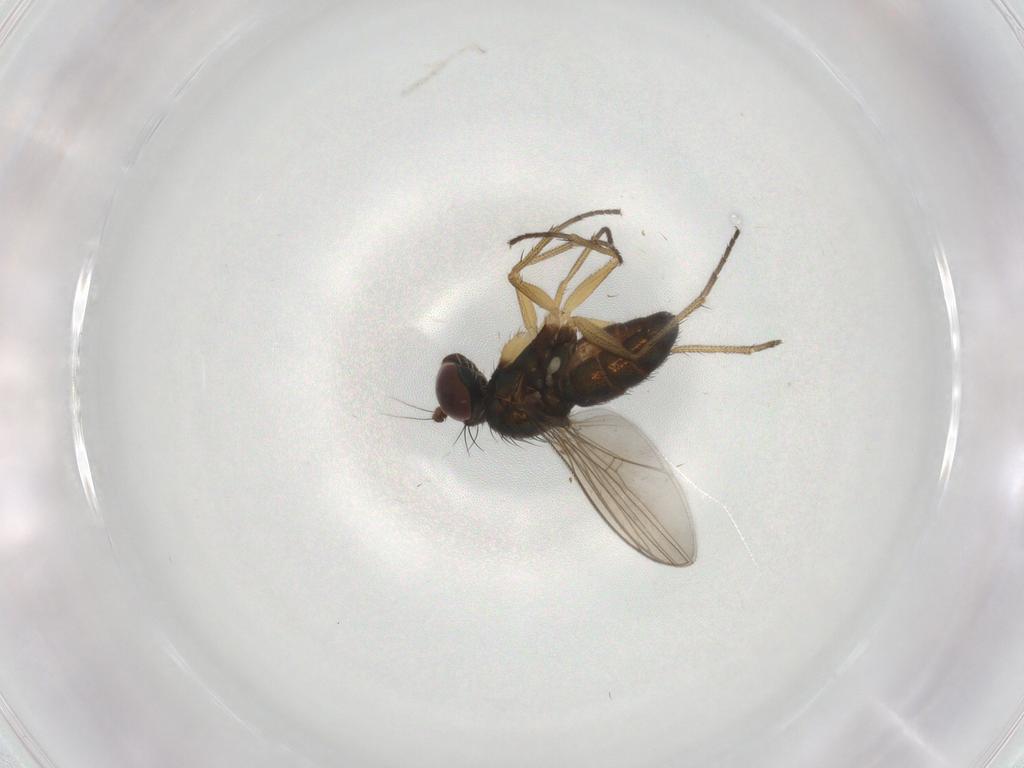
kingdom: Animalia
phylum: Arthropoda
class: Insecta
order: Diptera
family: Dolichopodidae
